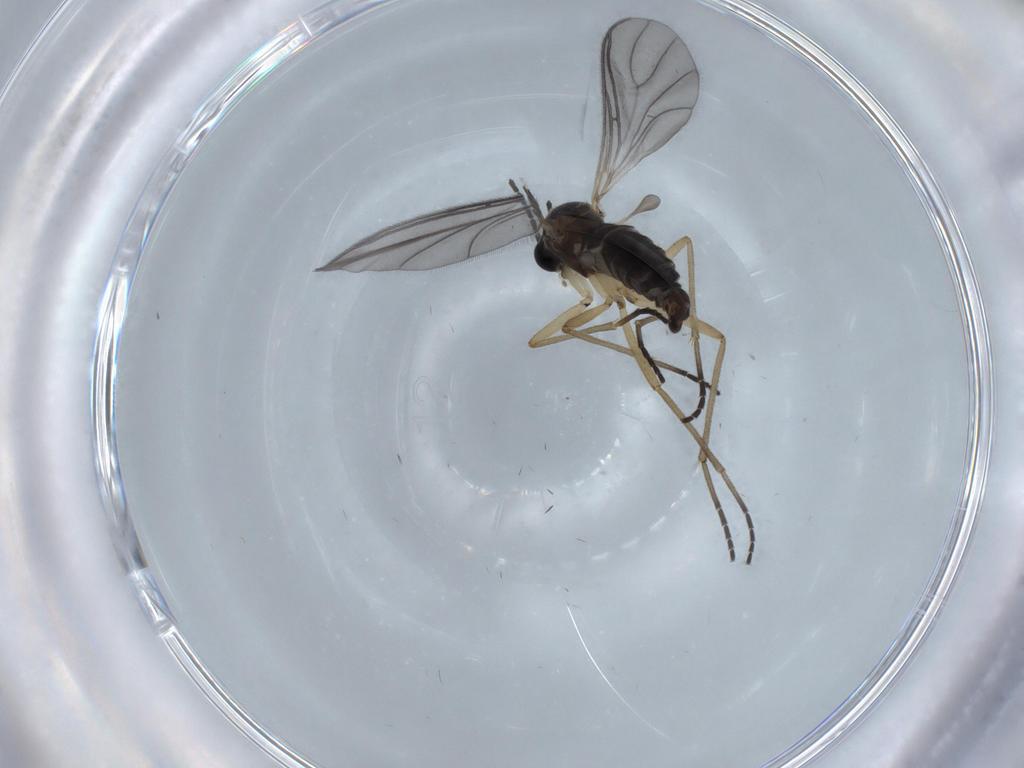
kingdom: Animalia
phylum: Arthropoda
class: Insecta
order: Diptera
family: Sciaridae
